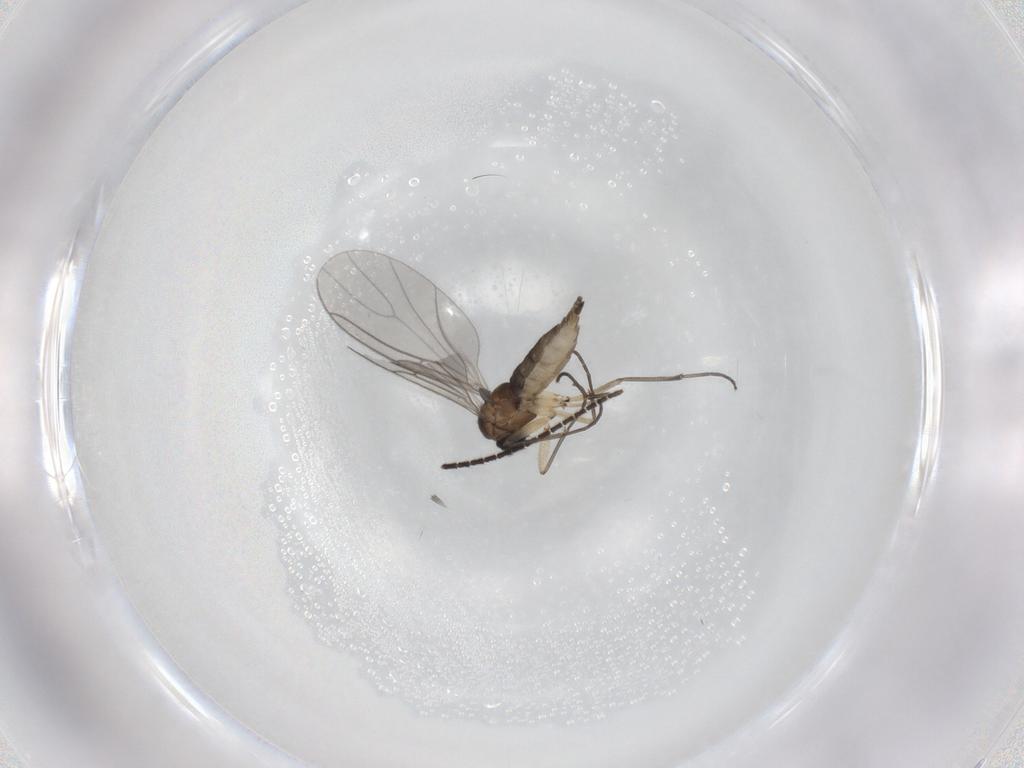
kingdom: Animalia
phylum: Arthropoda
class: Insecta
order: Diptera
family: Sciaridae
